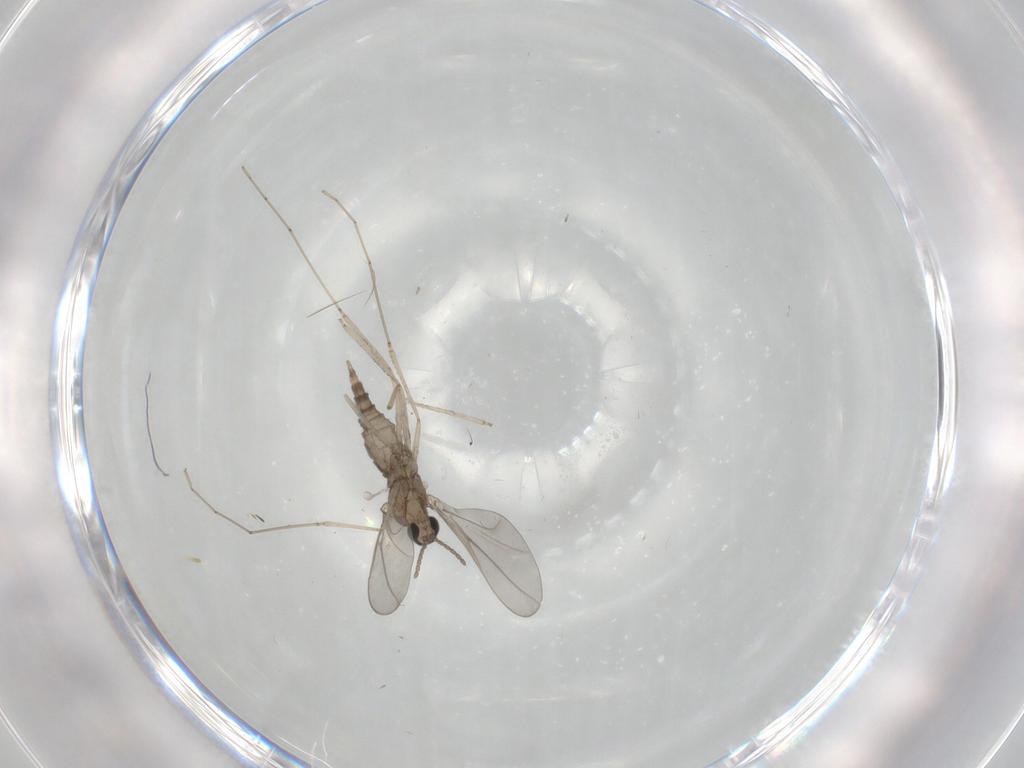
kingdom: Animalia
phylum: Arthropoda
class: Insecta
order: Diptera
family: Cecidomyiidae
